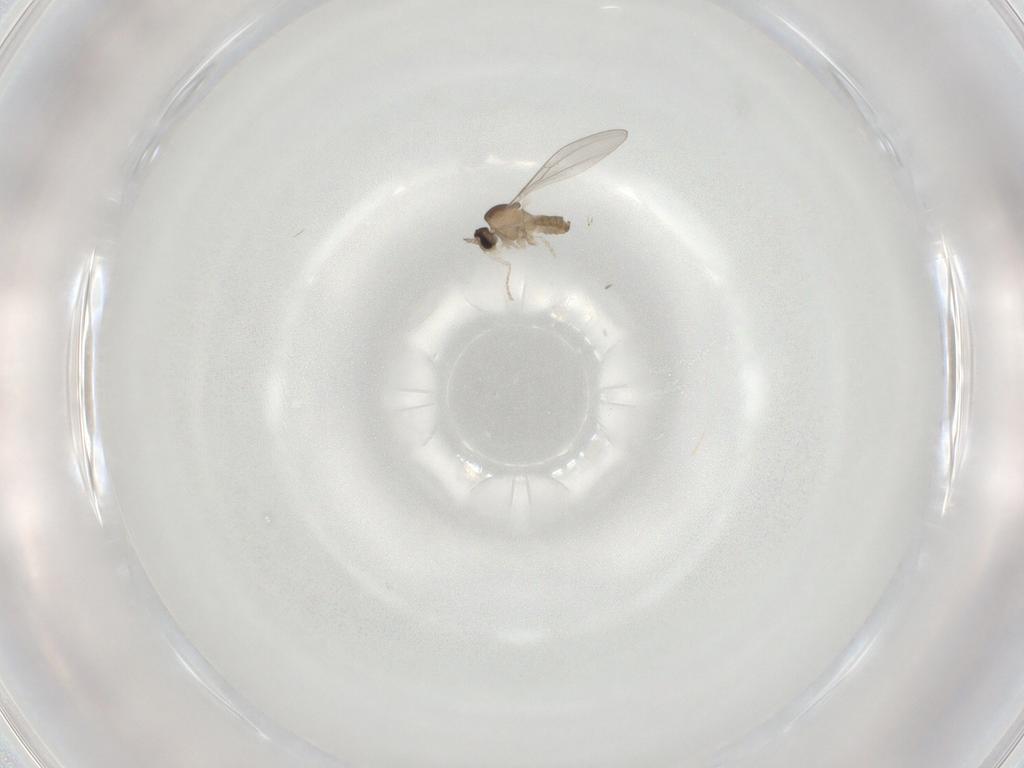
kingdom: Animalia
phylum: Arthropoda
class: Insecta
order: Diptera
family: Cecidomyiidae
